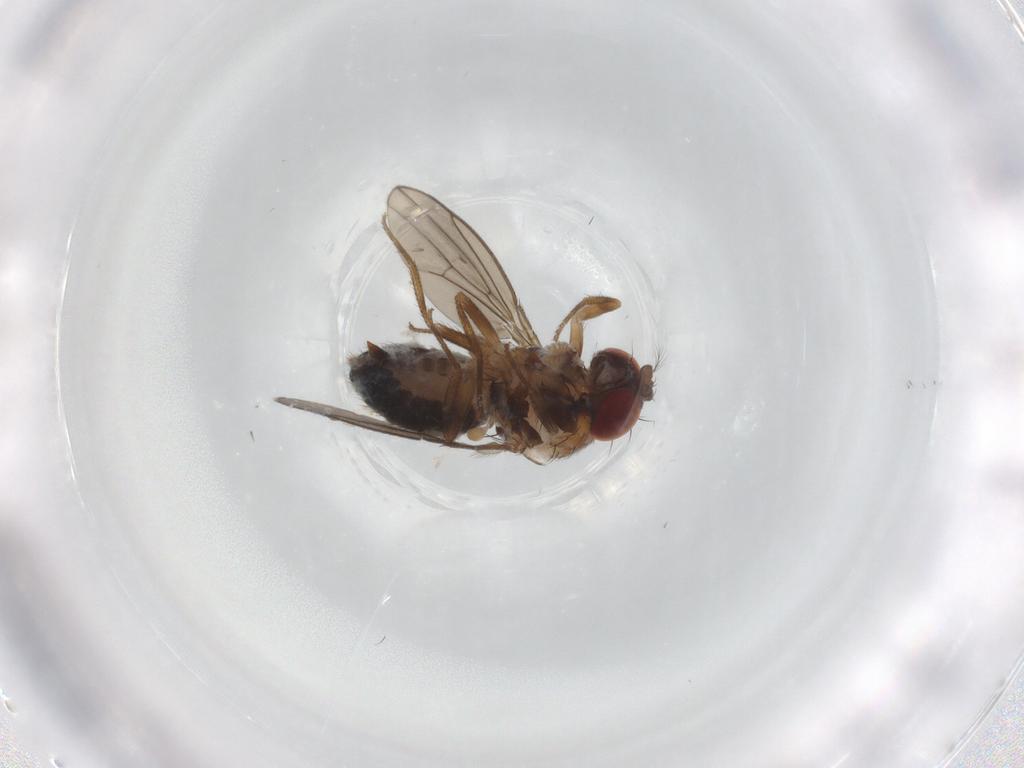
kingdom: Animalia
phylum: Arthropoda
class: Insecta
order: Diptera
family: Drosophilidae
